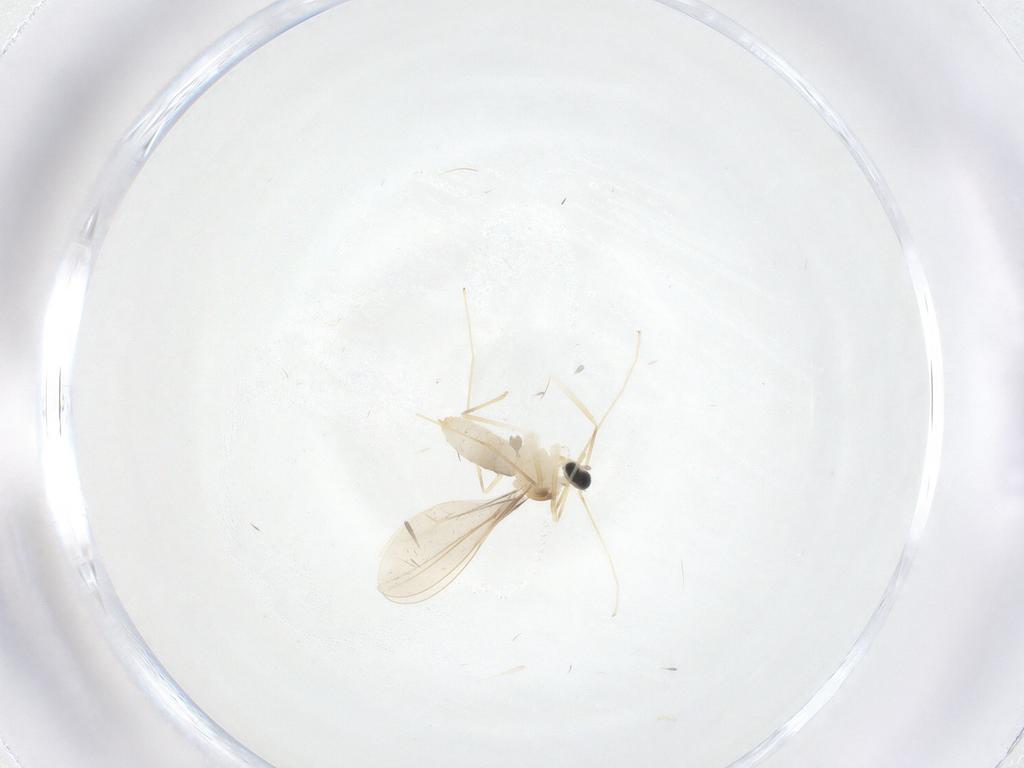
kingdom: Animalia
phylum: Arthropoda
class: Insecta
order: Diptera
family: Cecidomyiidae
